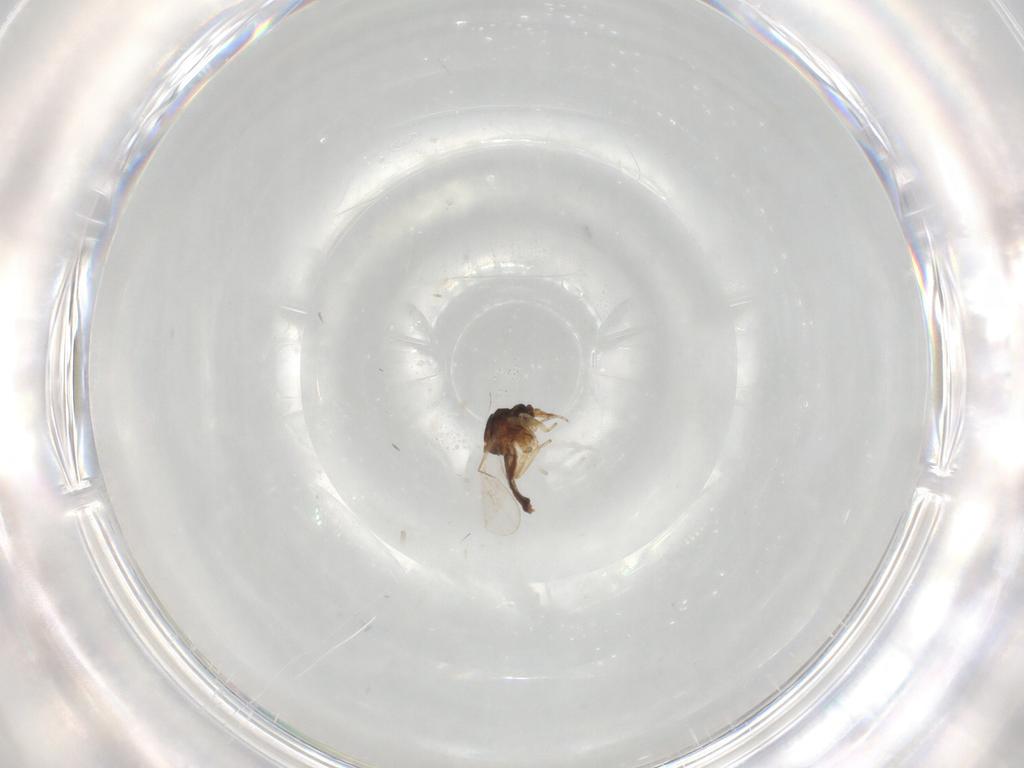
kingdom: Animalia
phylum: Arthropoda
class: Insecta
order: Diptera
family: Ceratopogonidae
